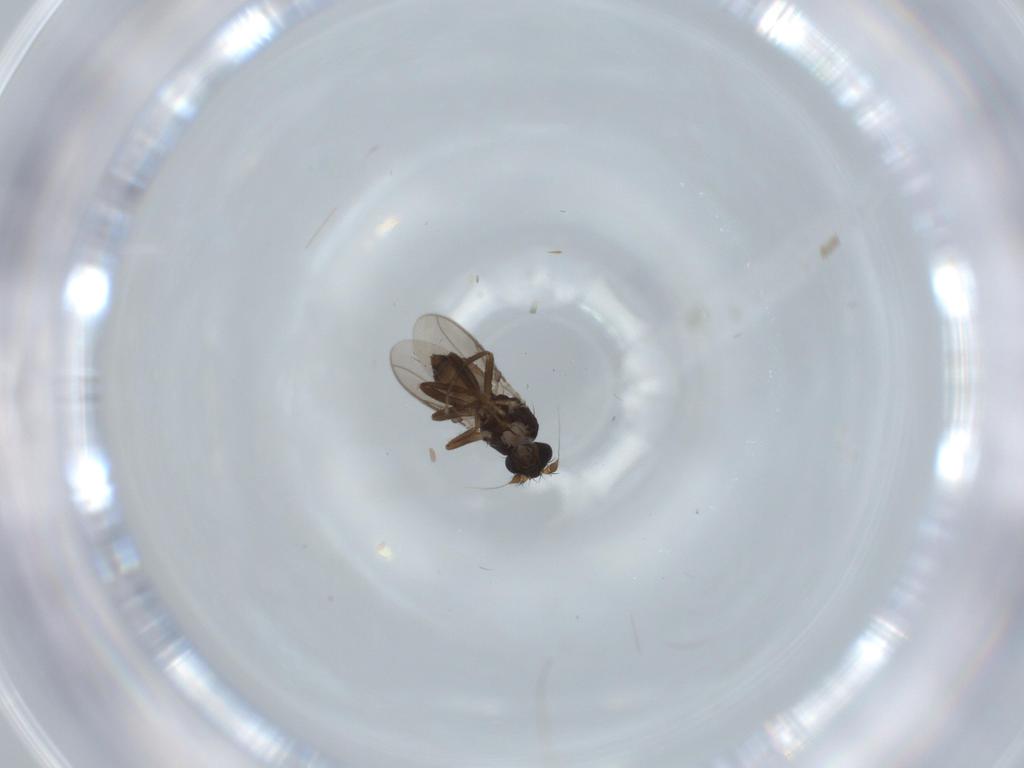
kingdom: Animalia
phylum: Arthropoda
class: Insecta
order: Diptera
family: Sphaeroceridae
